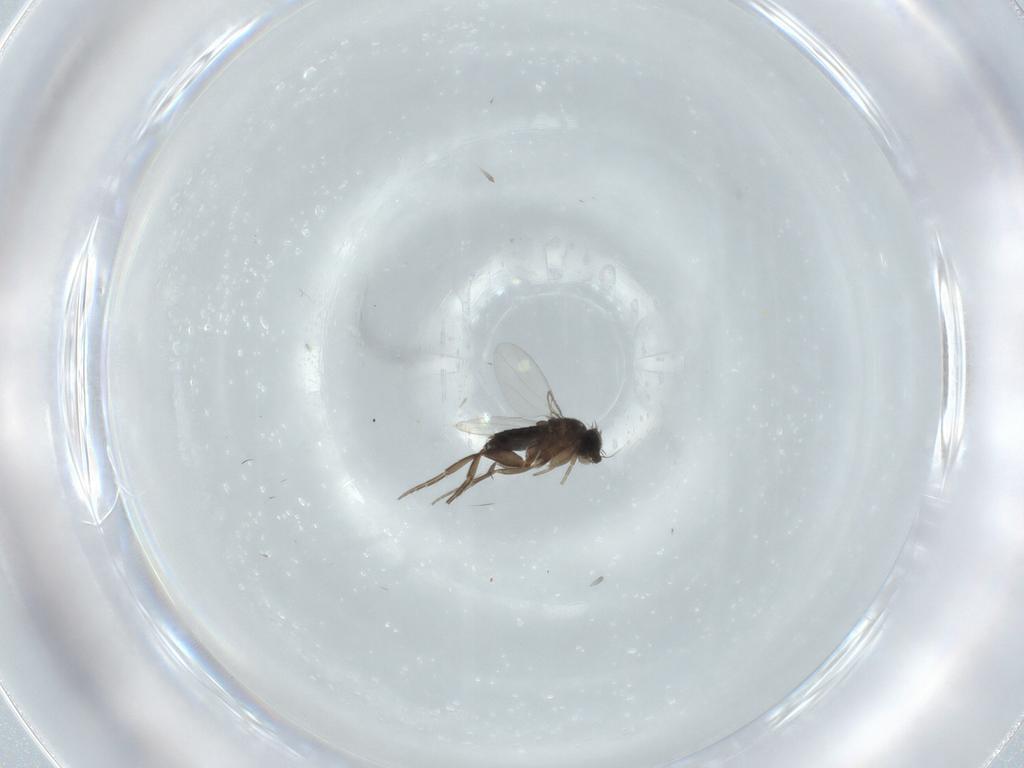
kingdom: Animalia
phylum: Arthropoda
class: Insecta
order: Diptera
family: Phoridae
